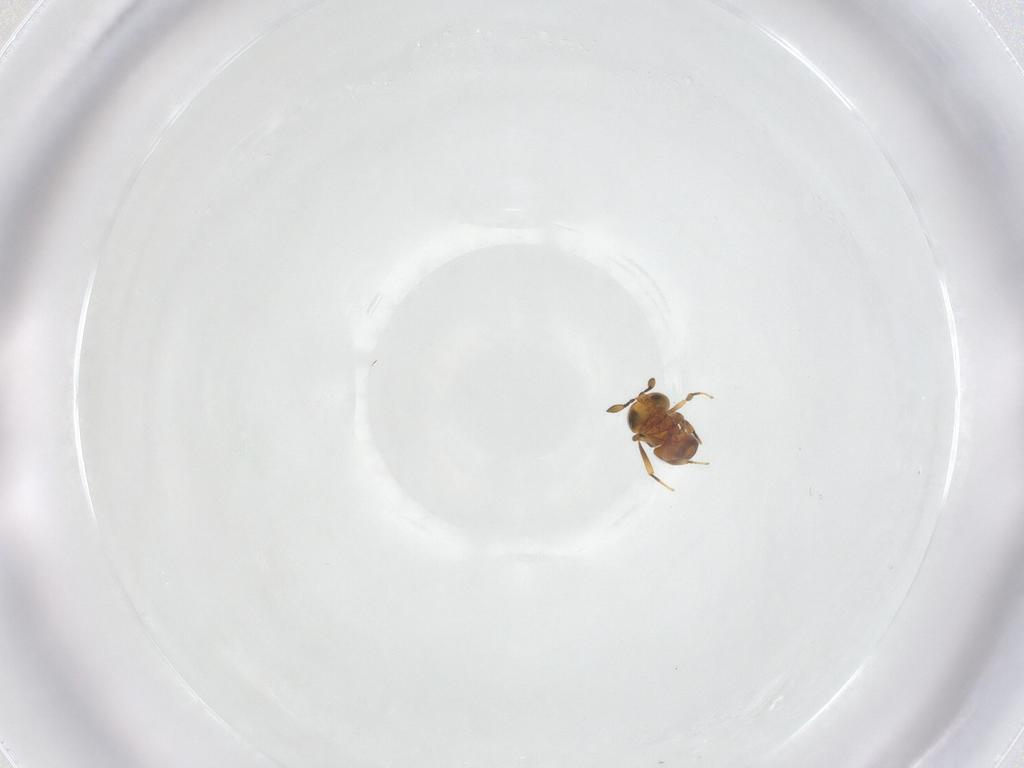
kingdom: Animalia
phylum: Arthropoda
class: Insecta
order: Hymenoptera
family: Scelionidae
